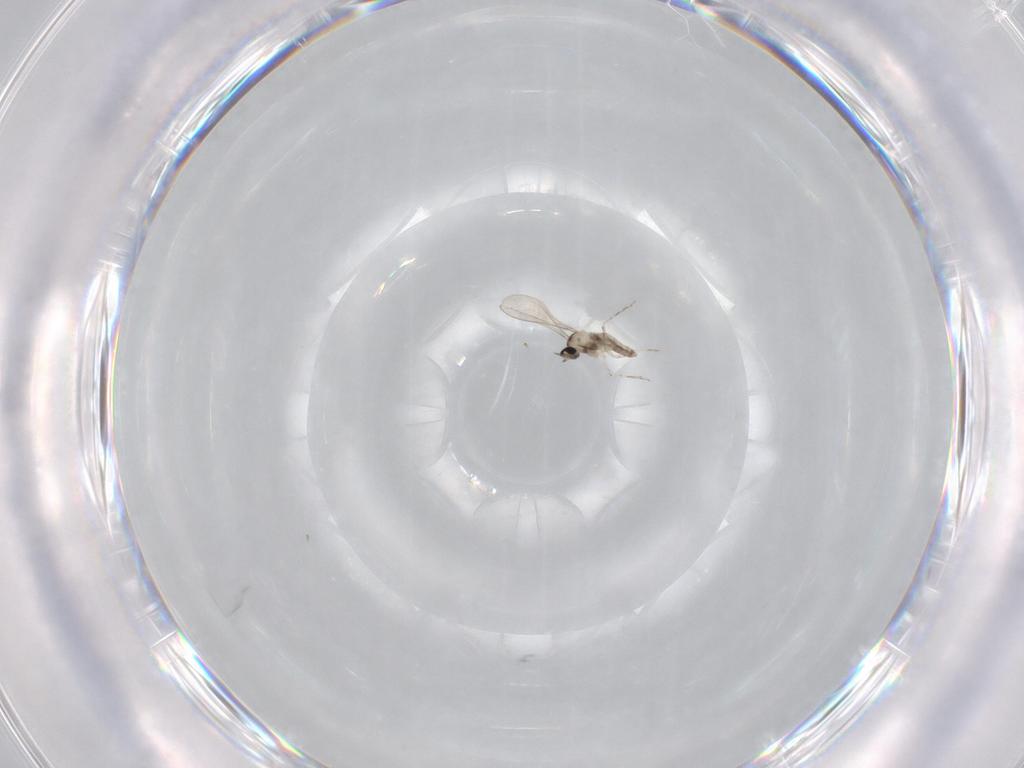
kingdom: Animalia
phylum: Arthropoda
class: Insecta
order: Diptera
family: Cecidomyiidae
